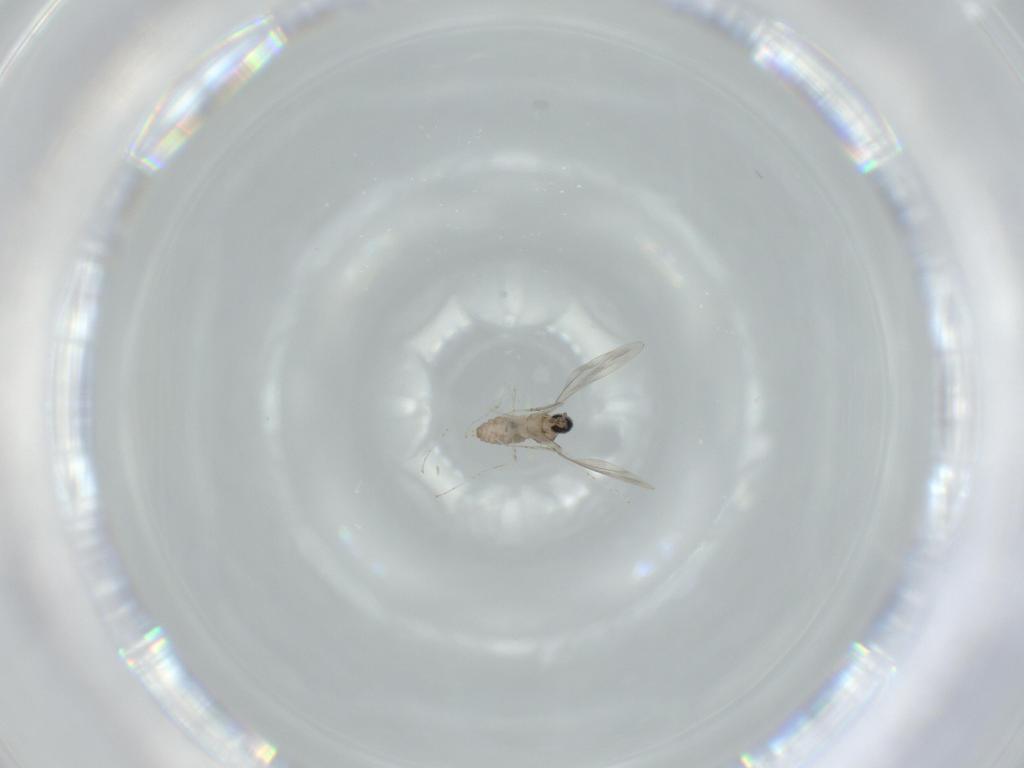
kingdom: Animalia
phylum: Arthropoda
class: Insecta
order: Diptera
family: Cecidomyiidae
